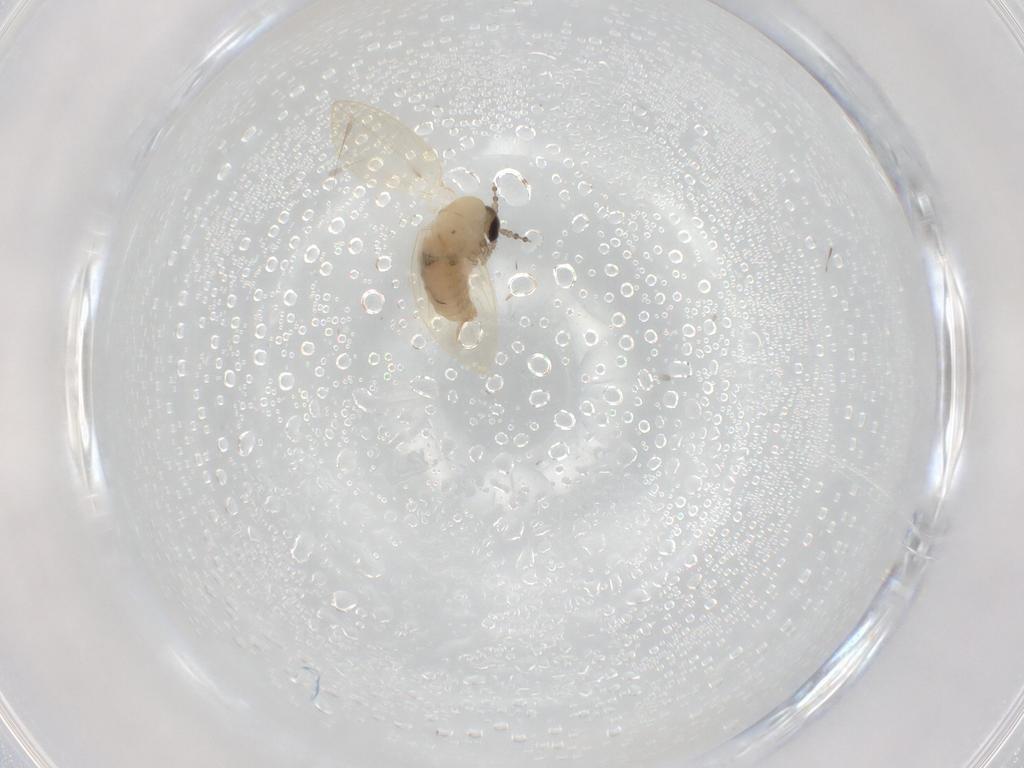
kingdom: Animalia
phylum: Arthropoda
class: Insecta
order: Diptera
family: Psychodidae
